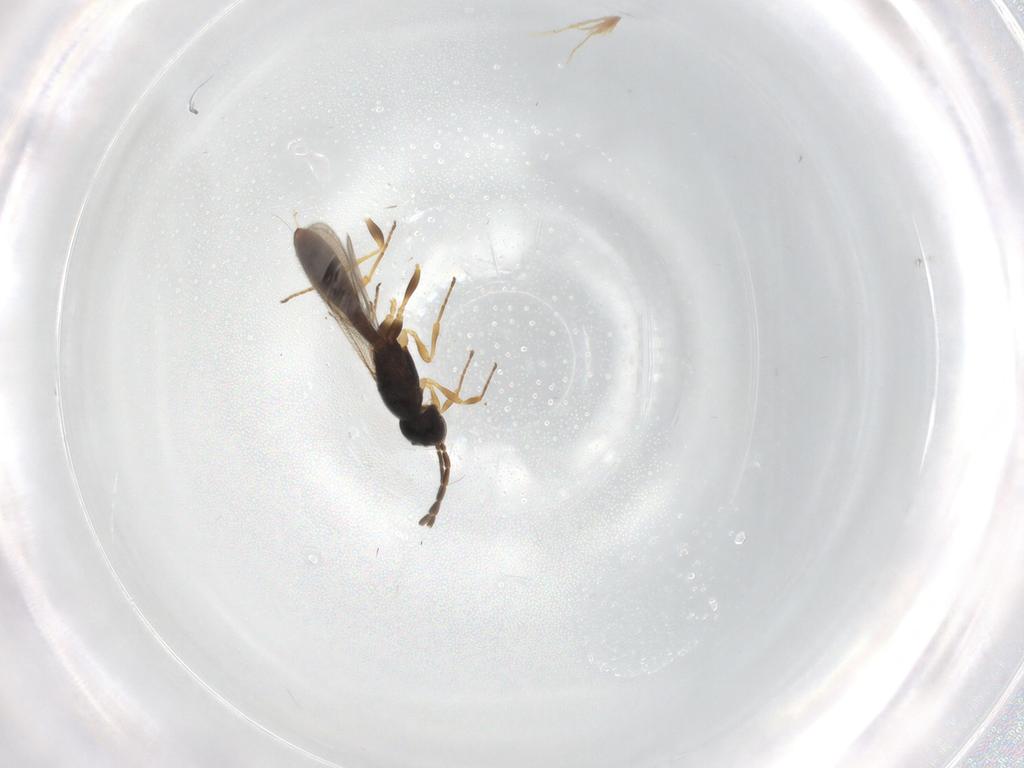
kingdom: Animalia
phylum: Arthropoda
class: Insecta
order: Hymenoptera
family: Scelionidae
